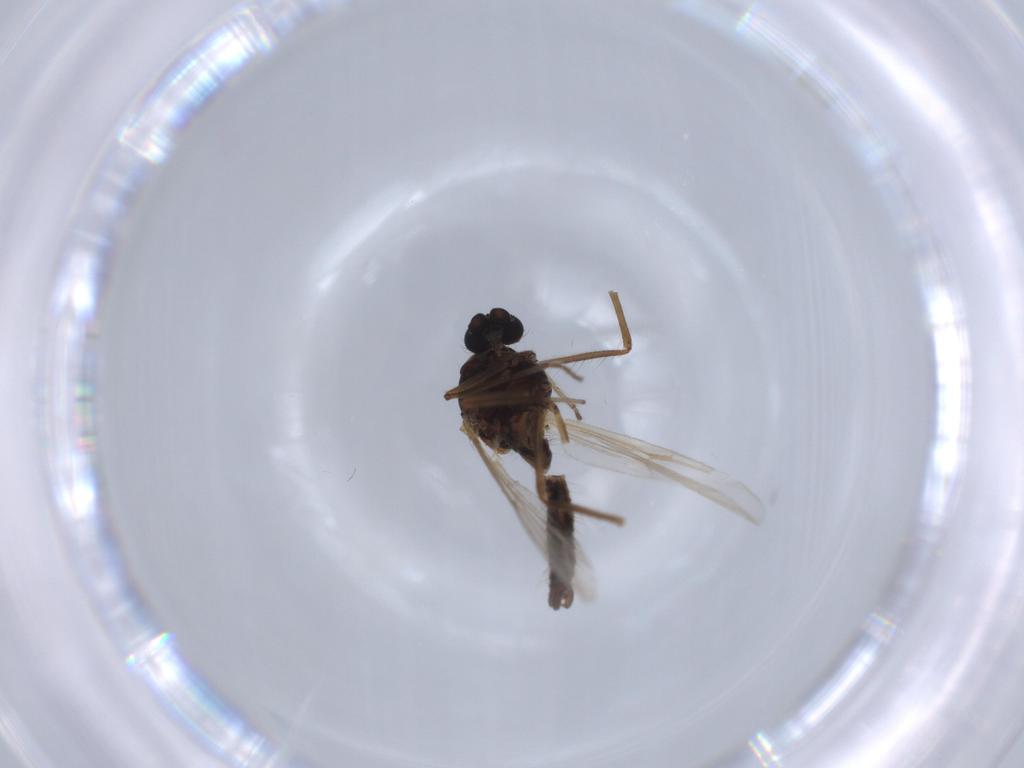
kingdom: Animalia
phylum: Arthropoda
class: Insecta
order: Diptera
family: Ceratopogonidae
